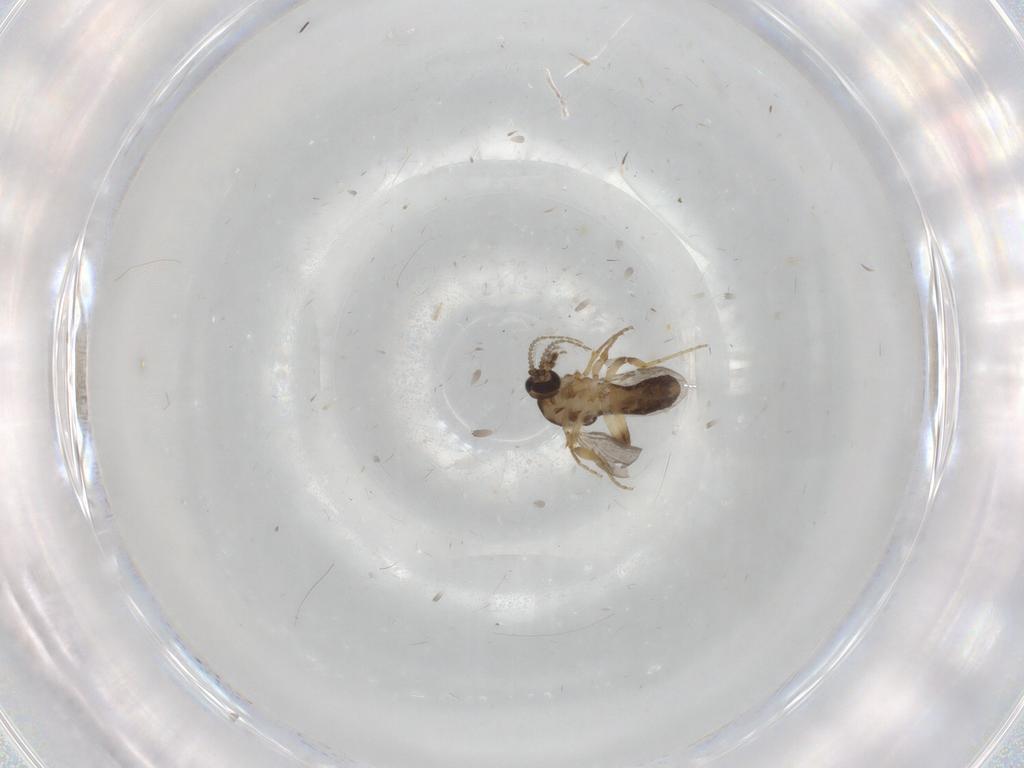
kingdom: Animalia
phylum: Arthropoda
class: Insecta
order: Diptera
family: Ceratopogonidae
